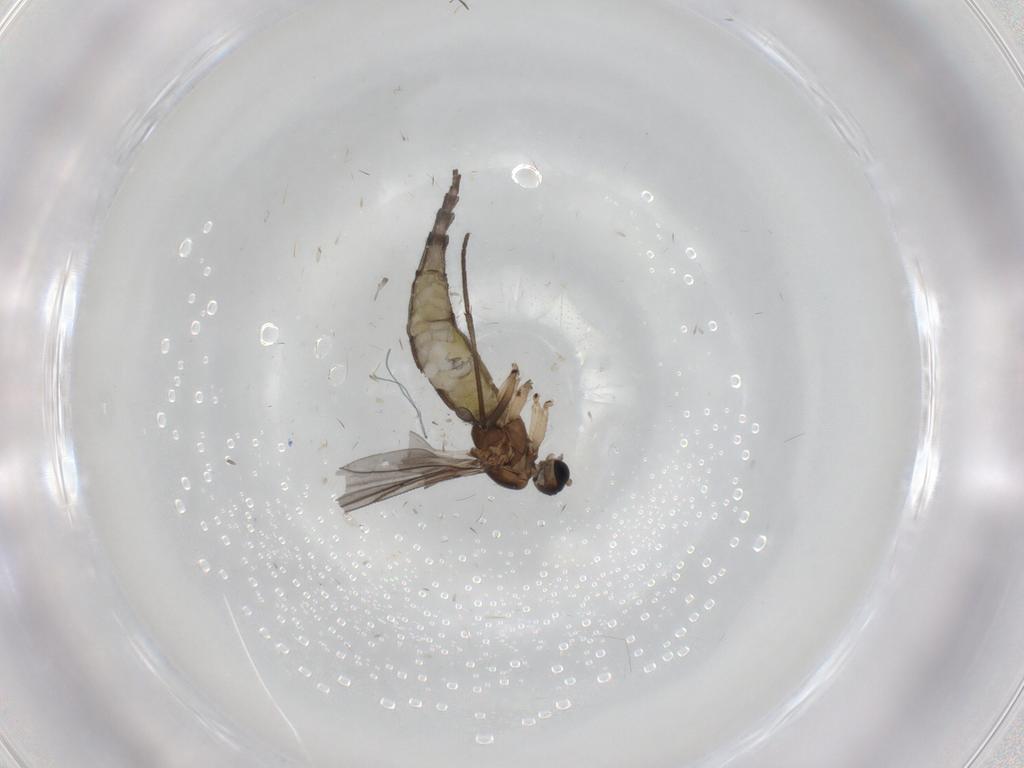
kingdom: Animalia
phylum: Arthropoda
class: Insecta
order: Diptera
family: Sciaridae
